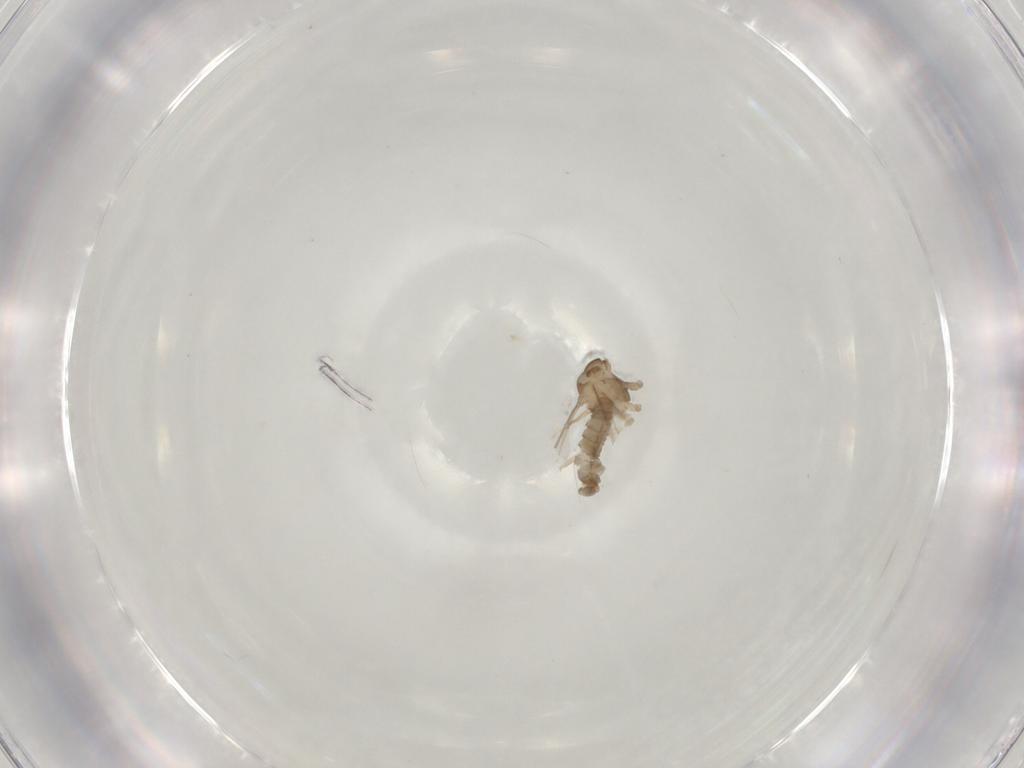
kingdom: Animalia
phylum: Arthropoda
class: Insecta
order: Diptera
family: Cecidomyiidae
